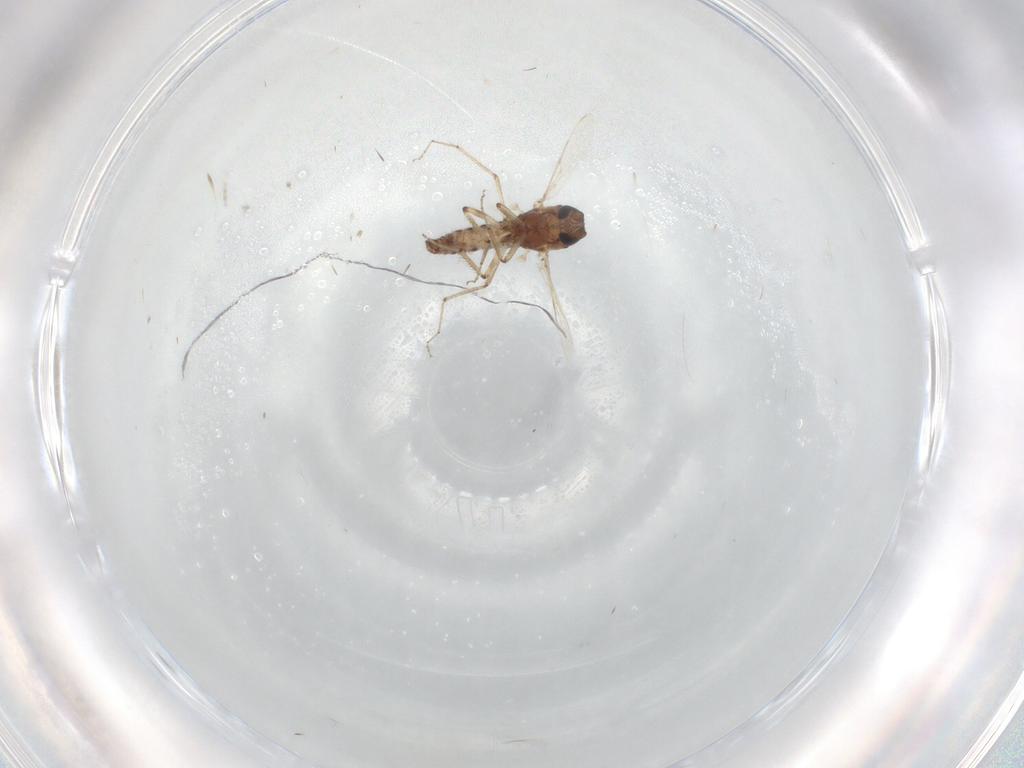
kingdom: Animalia
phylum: Arthropoda
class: Insecta
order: Diptera
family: Ceratopogonidae
